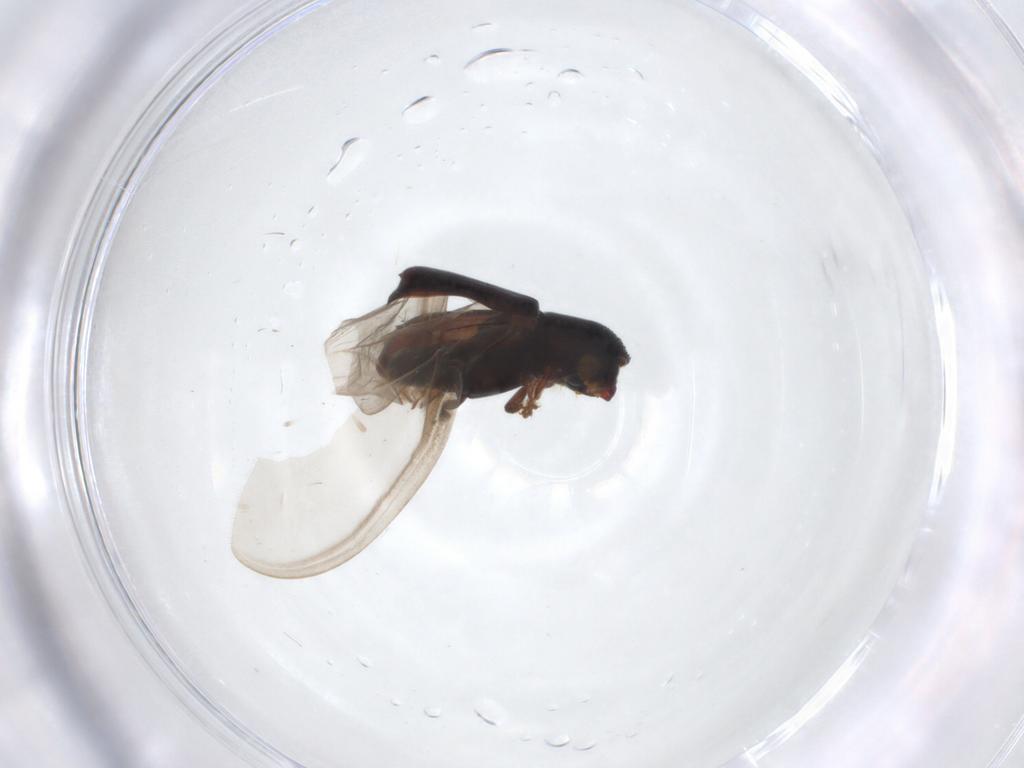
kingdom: Animalia
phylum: Arthropoda
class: Insecta
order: Coleoptera
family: Curculionidae
